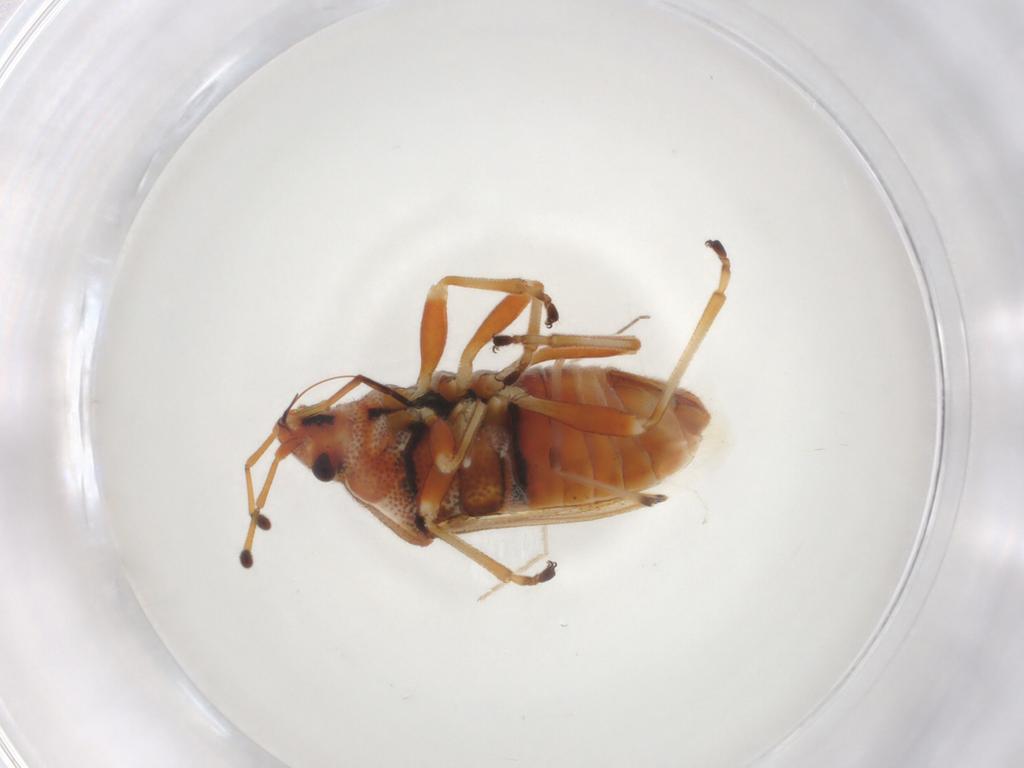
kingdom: Animalia
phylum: Arthropoda
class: Insecta
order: Hemiptera
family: Lygaeidae
